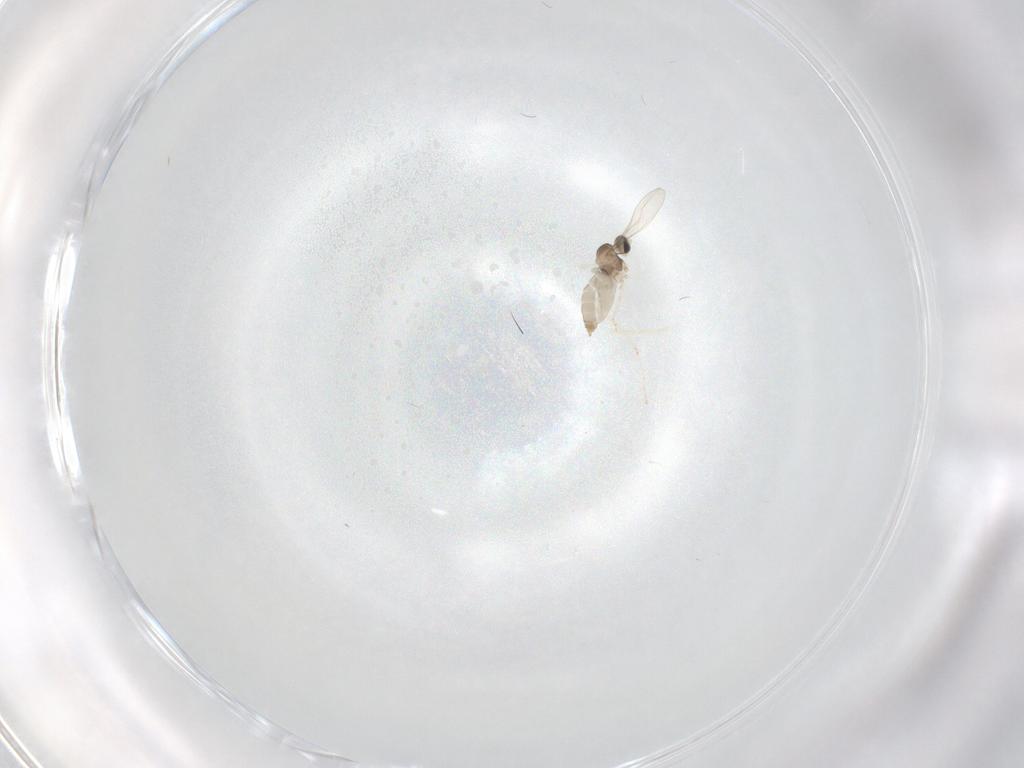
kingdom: Animalia
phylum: Arthropoda
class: Insecta
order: Diptera
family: Cecidomyiidae
